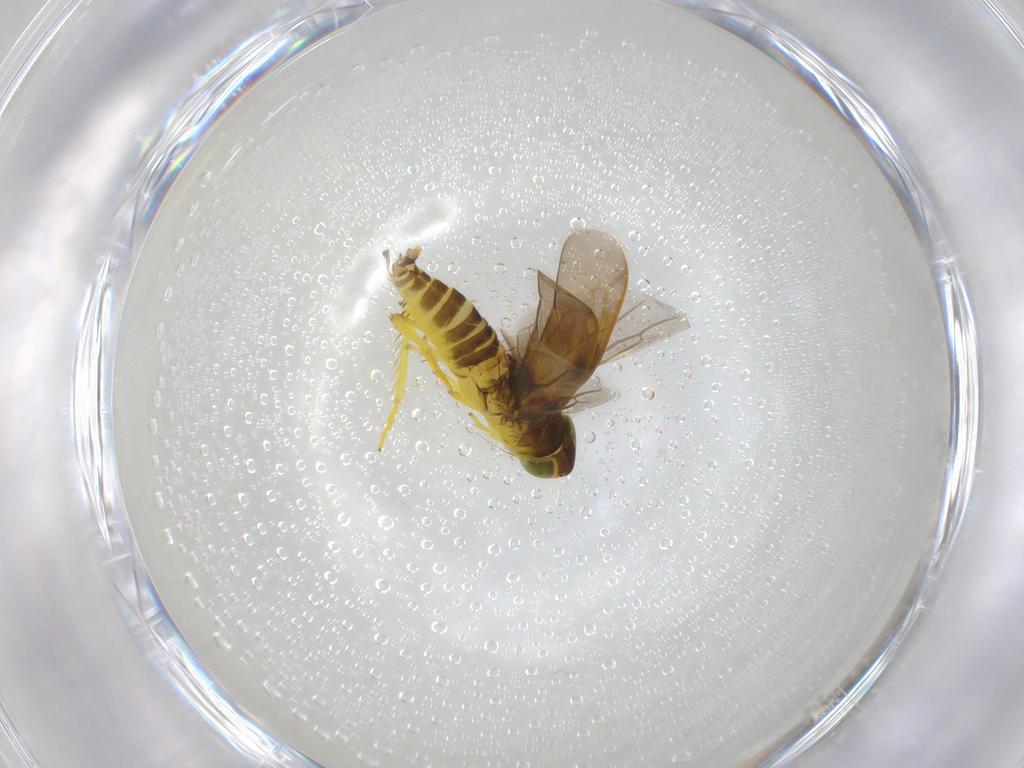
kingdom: Animalia
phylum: Arthropoda
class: Insecta
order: Hemiptera
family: Cicadellidae
